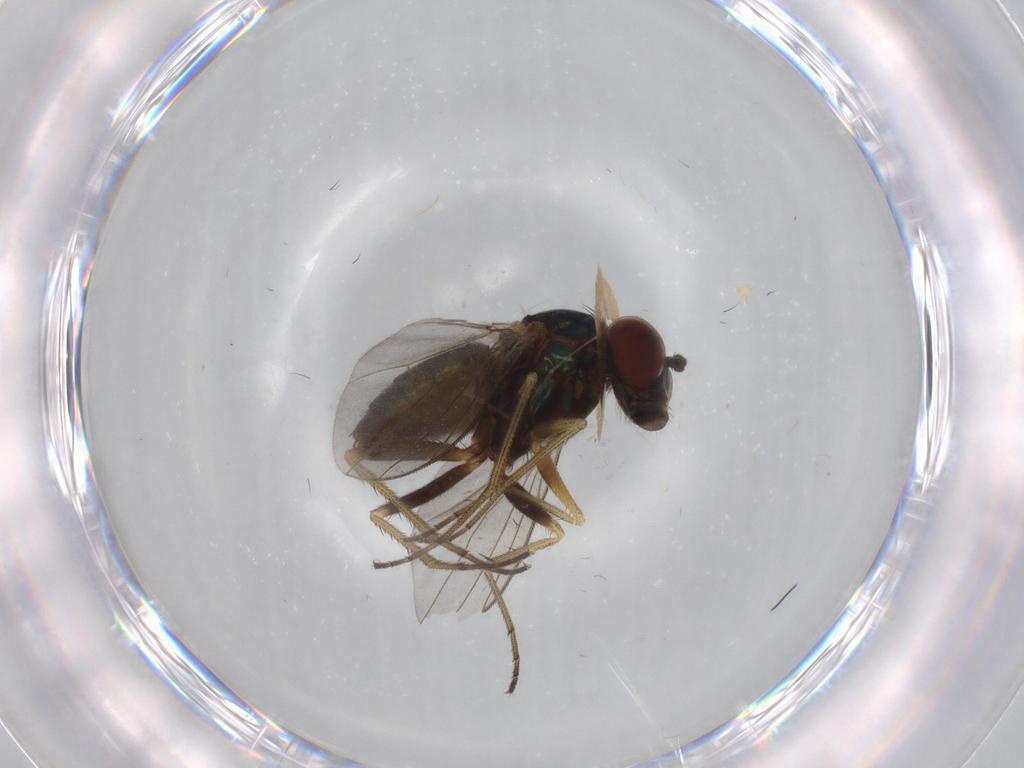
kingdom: Animalia
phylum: Arthropoda
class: Insecta
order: Diptera
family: Dolichopodidae
